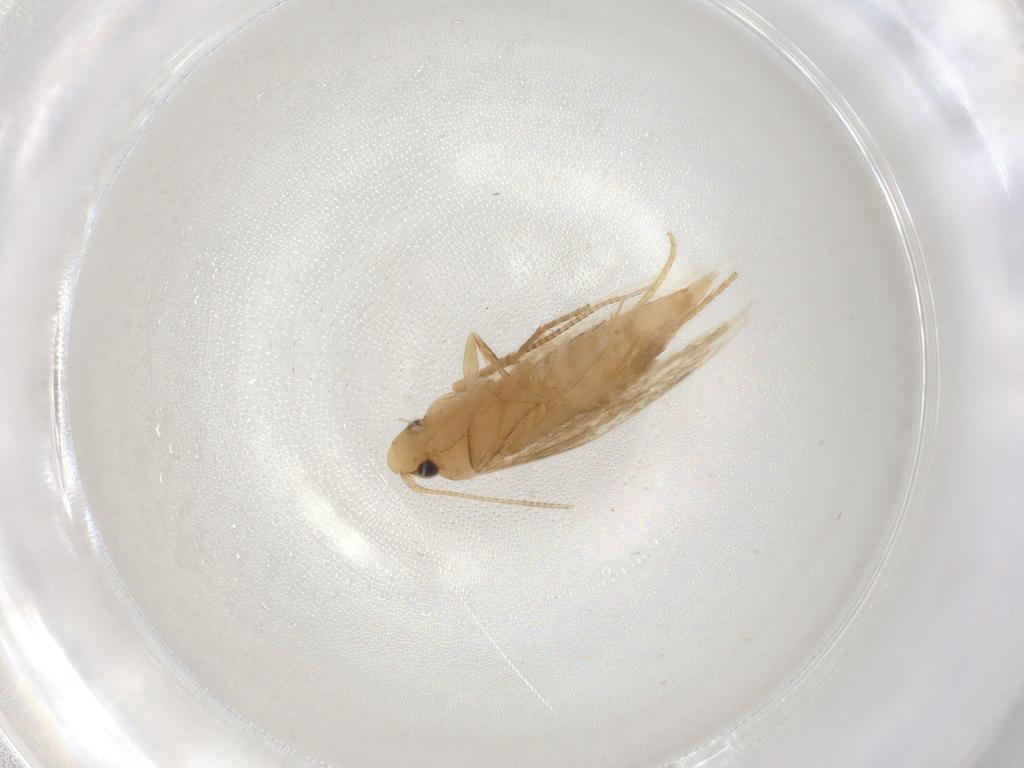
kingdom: Animalia
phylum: Arthropoda
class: Insecta
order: Lepidoptera
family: Tineidae
